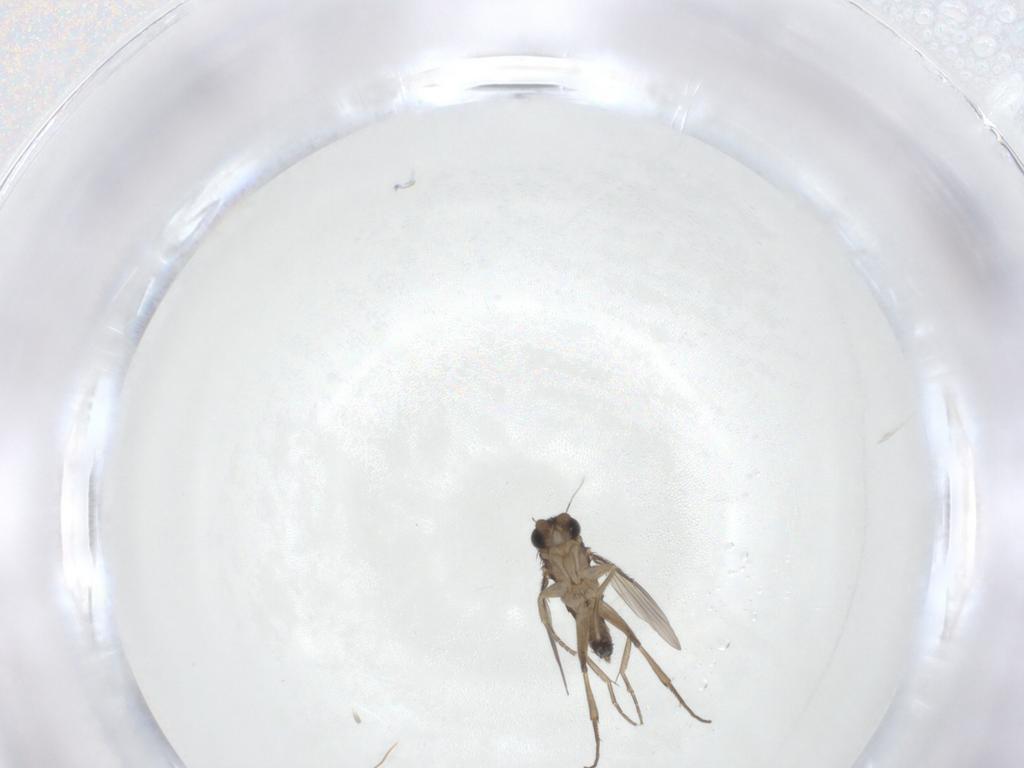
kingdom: Animalia
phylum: Arthropoda
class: Insecta
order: Diptera
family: Phoridae
